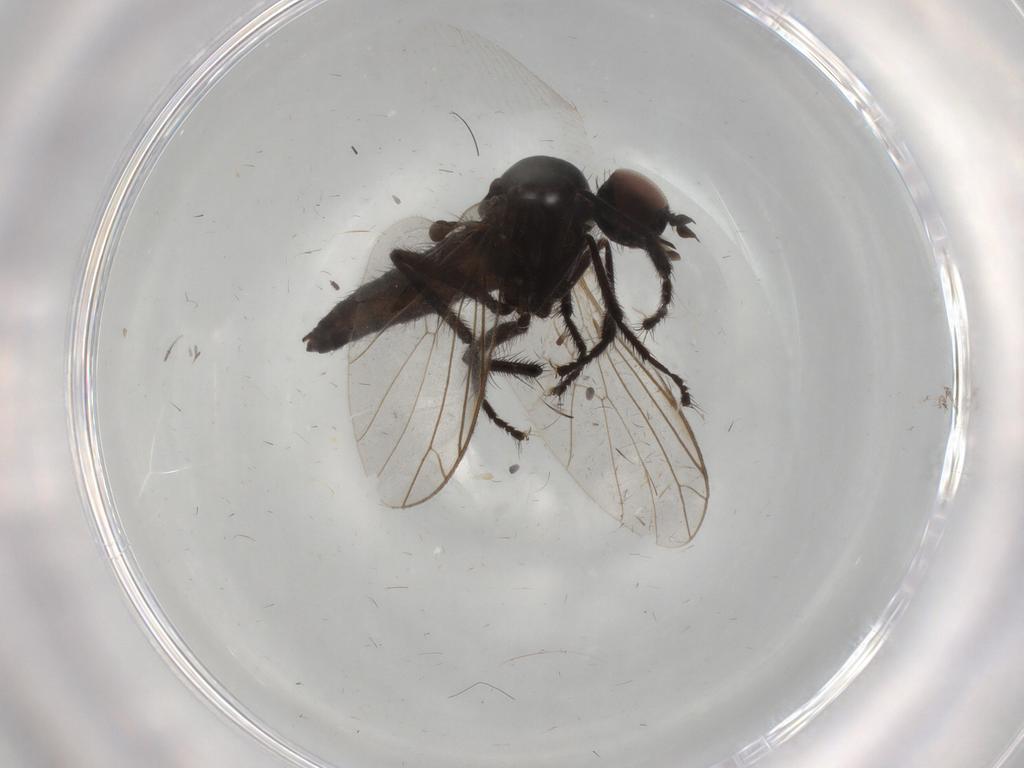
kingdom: Animalia
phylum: Arthropoda
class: Insecta
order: Diptera
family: Empididae
